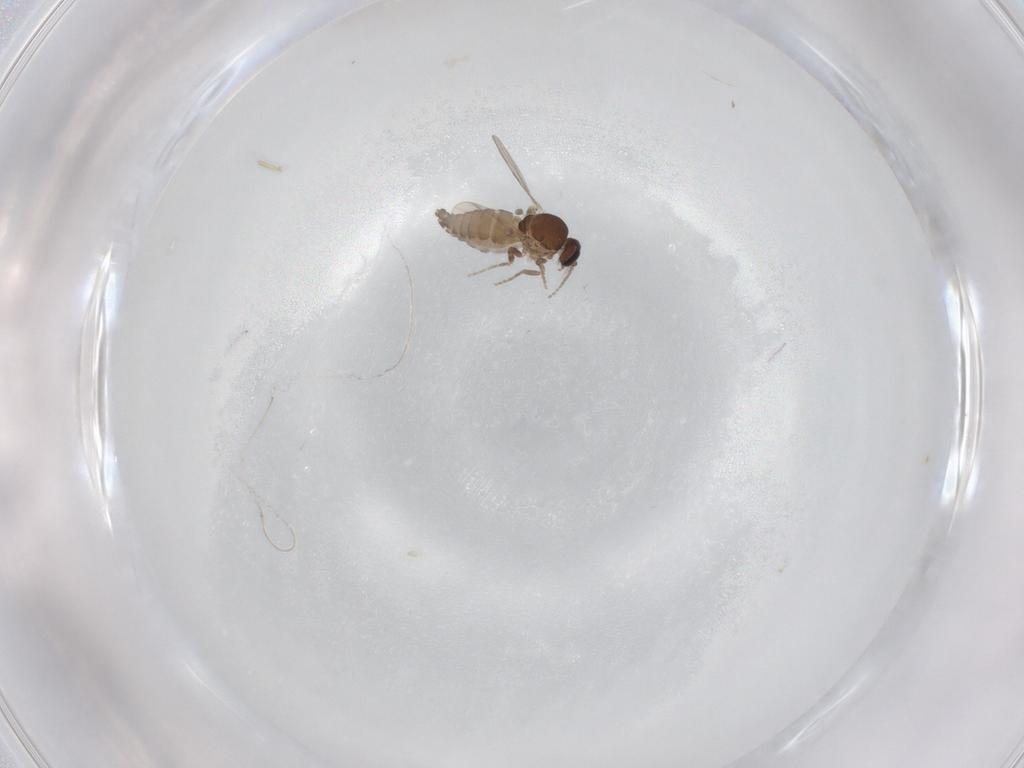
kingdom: Animalia
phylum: Arthropoda
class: Insecta
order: Diptera
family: Ceratopogonidae
